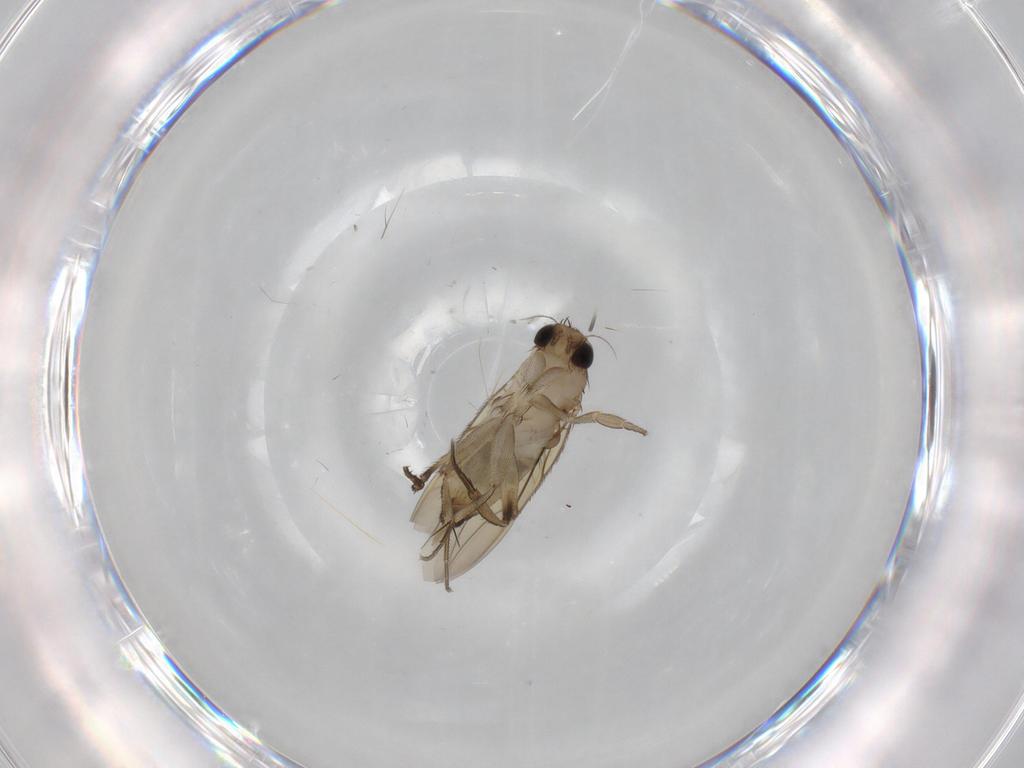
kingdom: Animalia
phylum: Arthropoda
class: Insecta
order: Diptera
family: Phoridae
